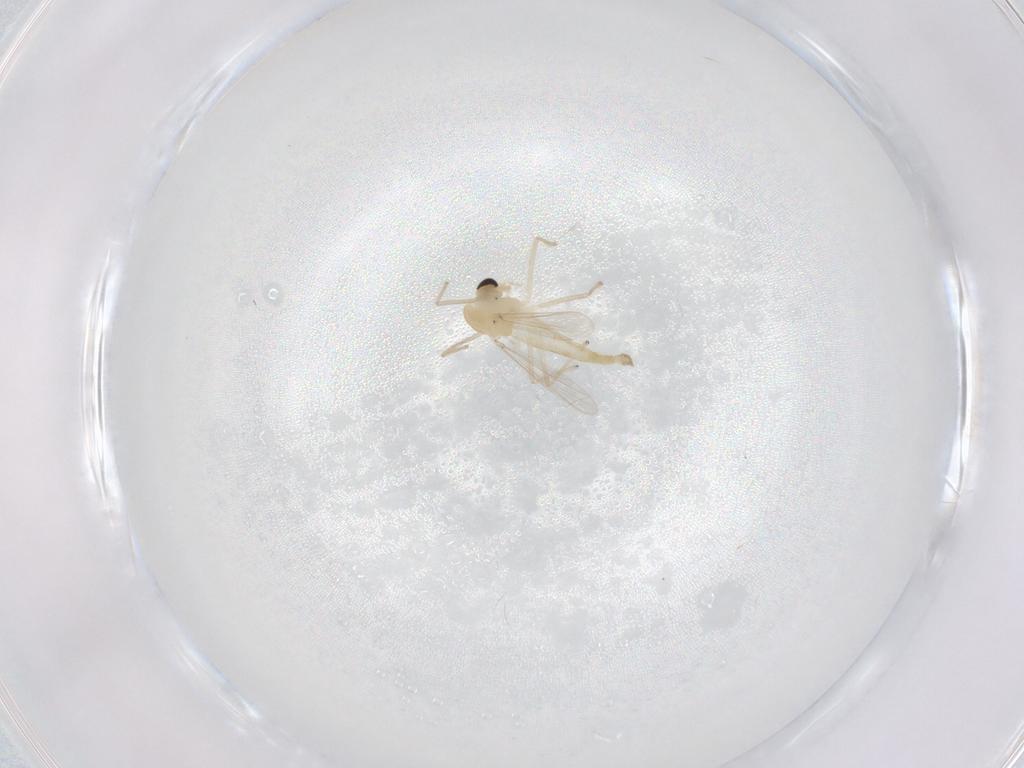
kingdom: Animalia
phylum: Arthropoda
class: Insecta
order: Diptera
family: Chironomidae
